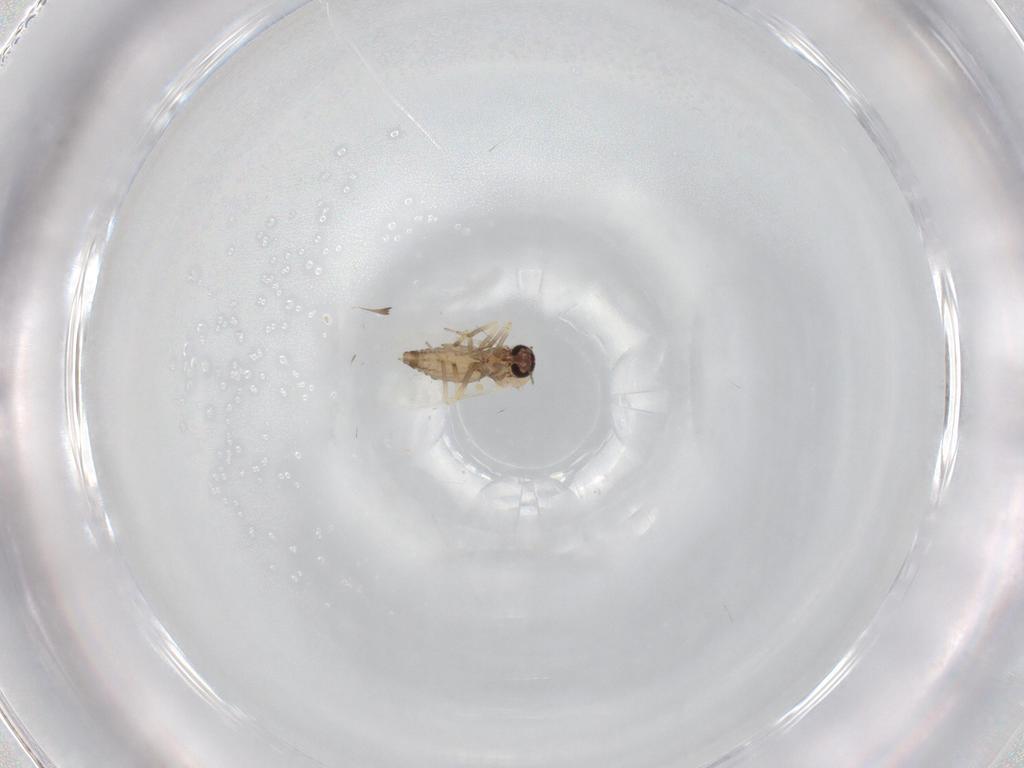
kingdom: Animalia
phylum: Arthropoda
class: Insecta
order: Diptera
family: Ceratopogonidae
